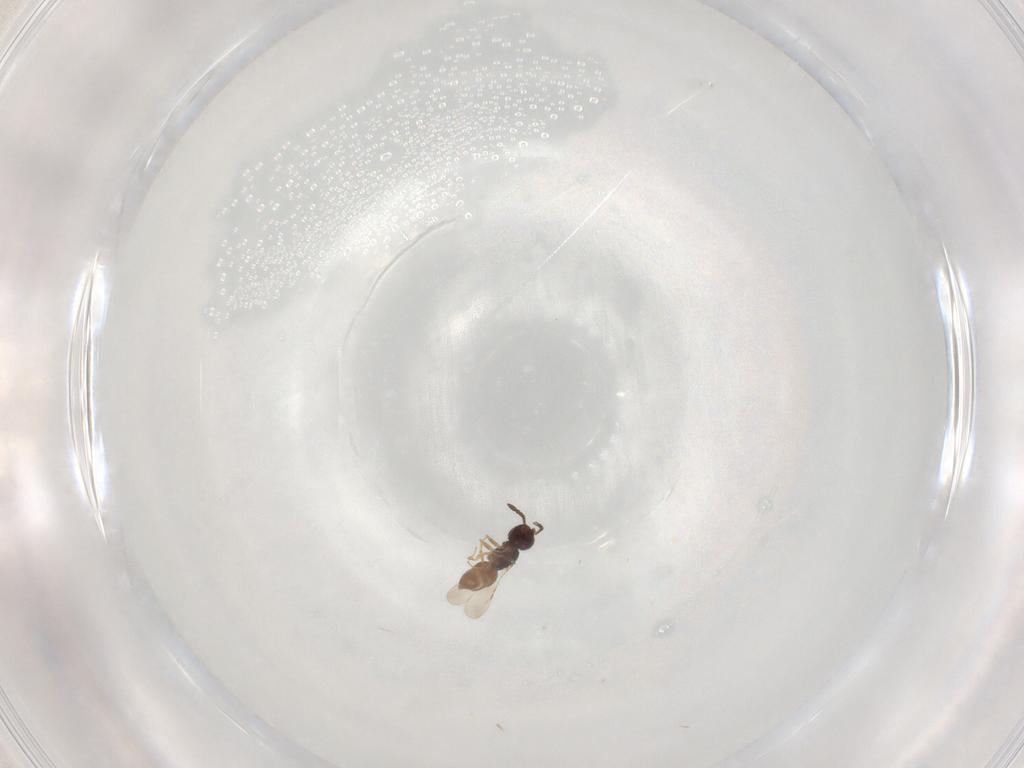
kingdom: Animalia
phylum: Arthropoda
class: Insecta
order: Hymenoptera
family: Ceraphronidae
